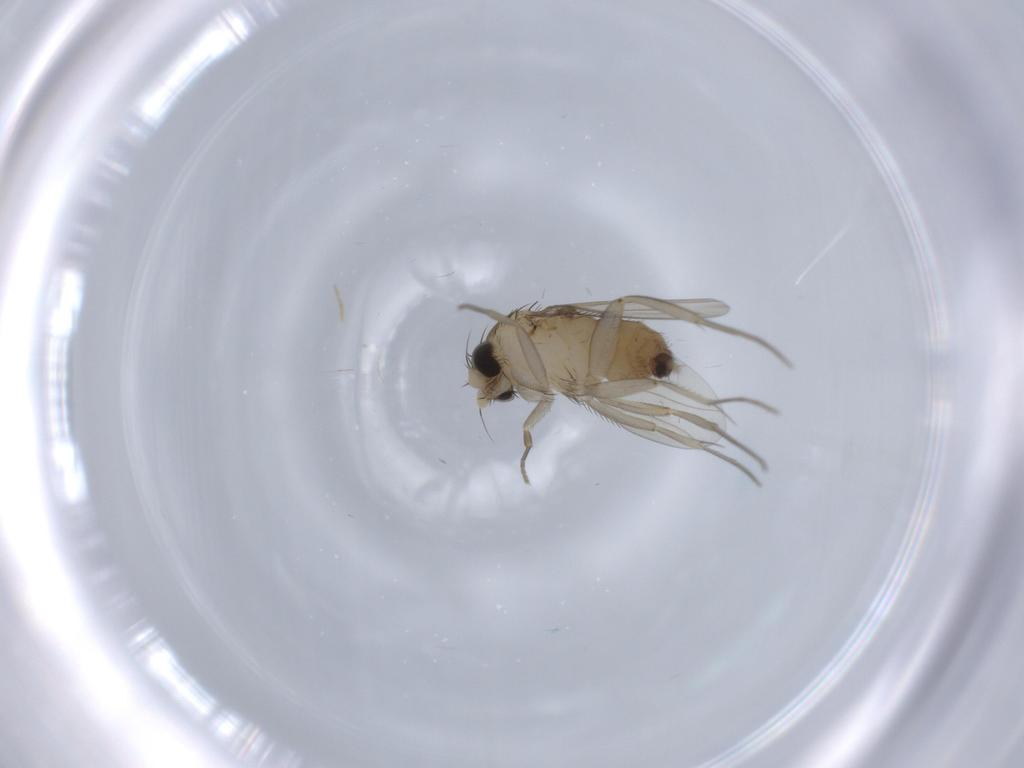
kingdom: Animalia
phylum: Arthropoda
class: Insecta
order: Diptera
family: Phoridae
